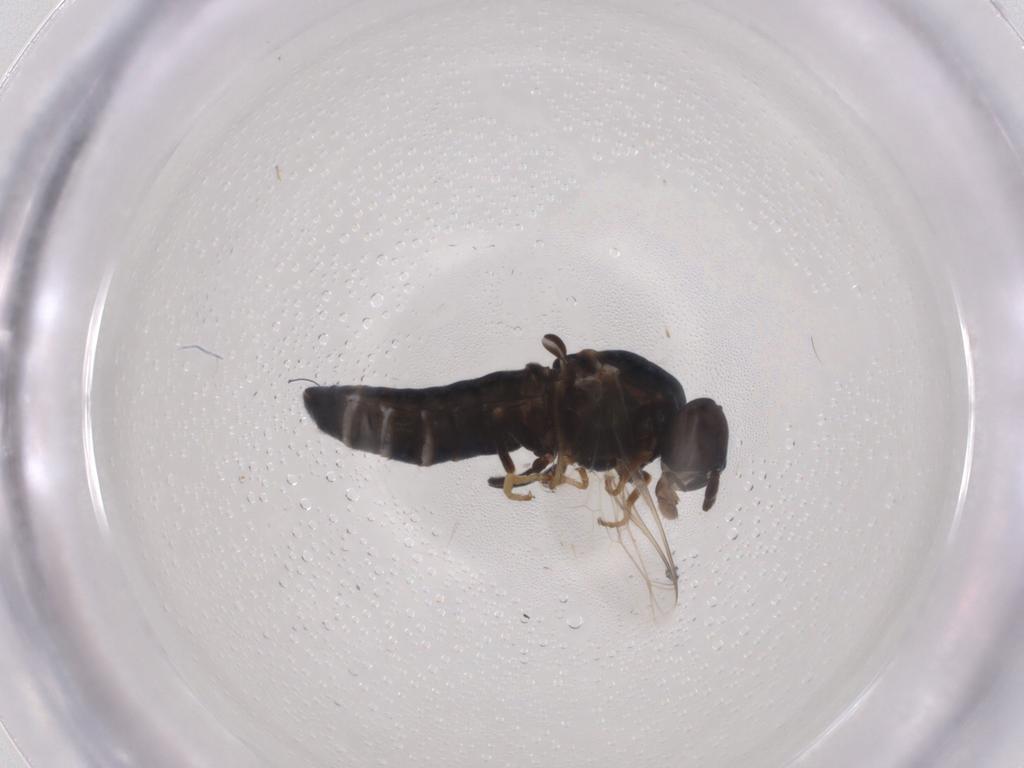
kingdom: Animalia
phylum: Arthropoda
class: Insecta
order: Diptera
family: Scenopinidae
